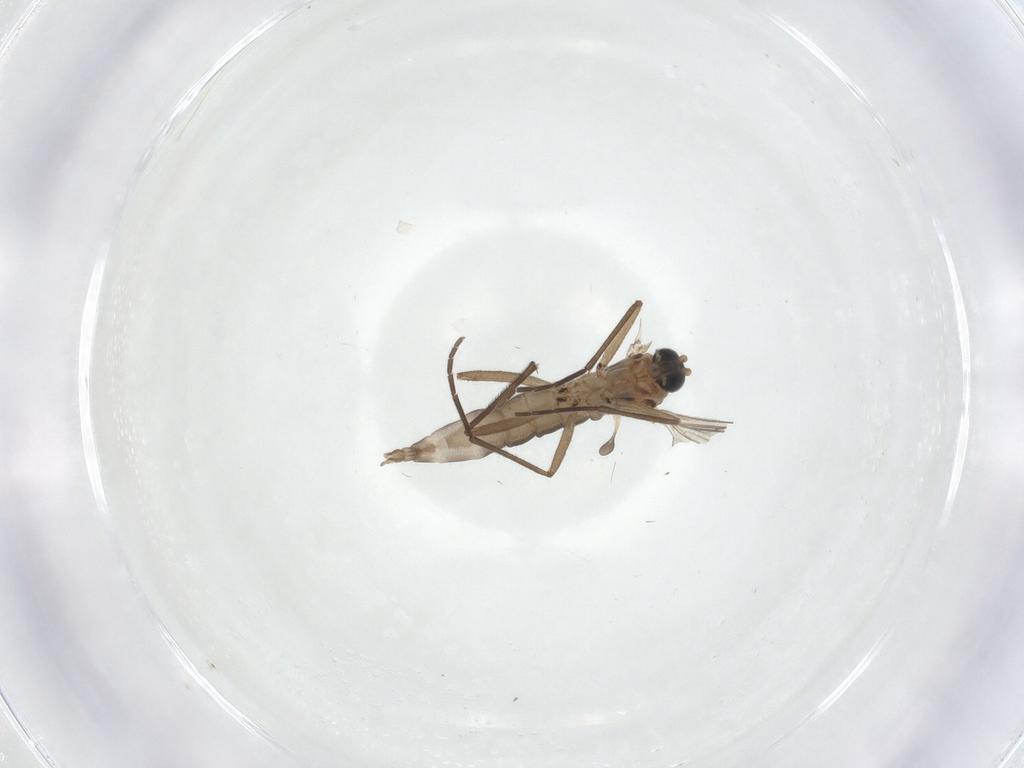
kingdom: Animalia
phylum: Arthropoda
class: Insecta
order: Diptera
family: Sciaridae
